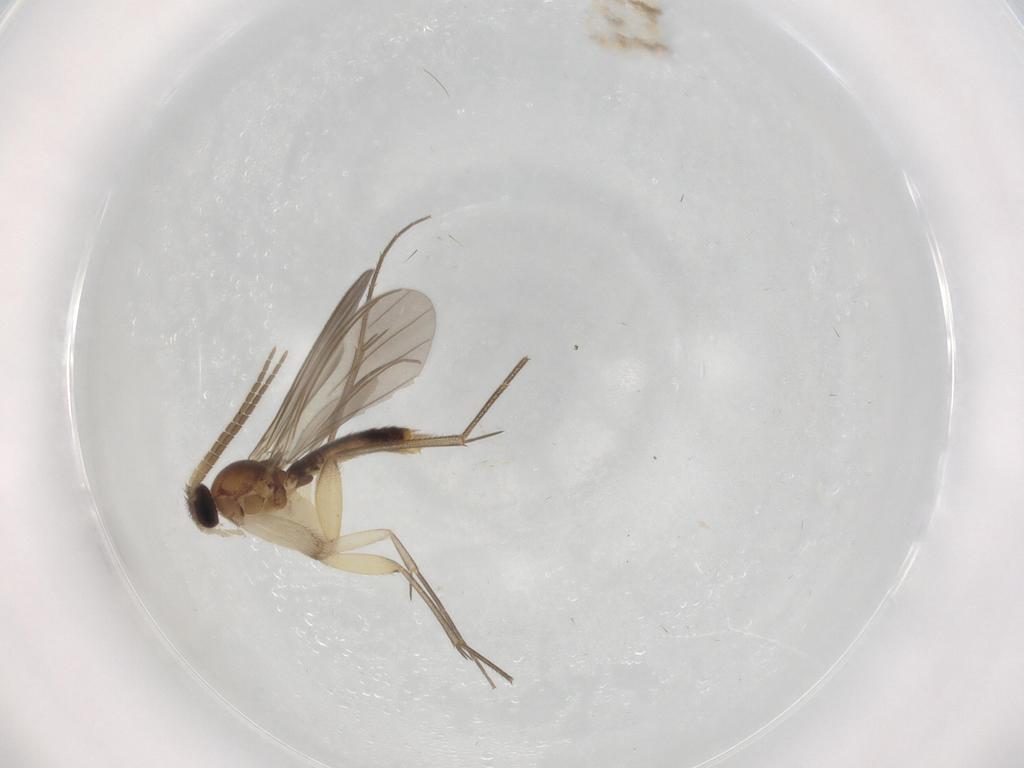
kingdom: Animalia
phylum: Arthropoda
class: Insecta
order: Diptera
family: Mycetophilidae
